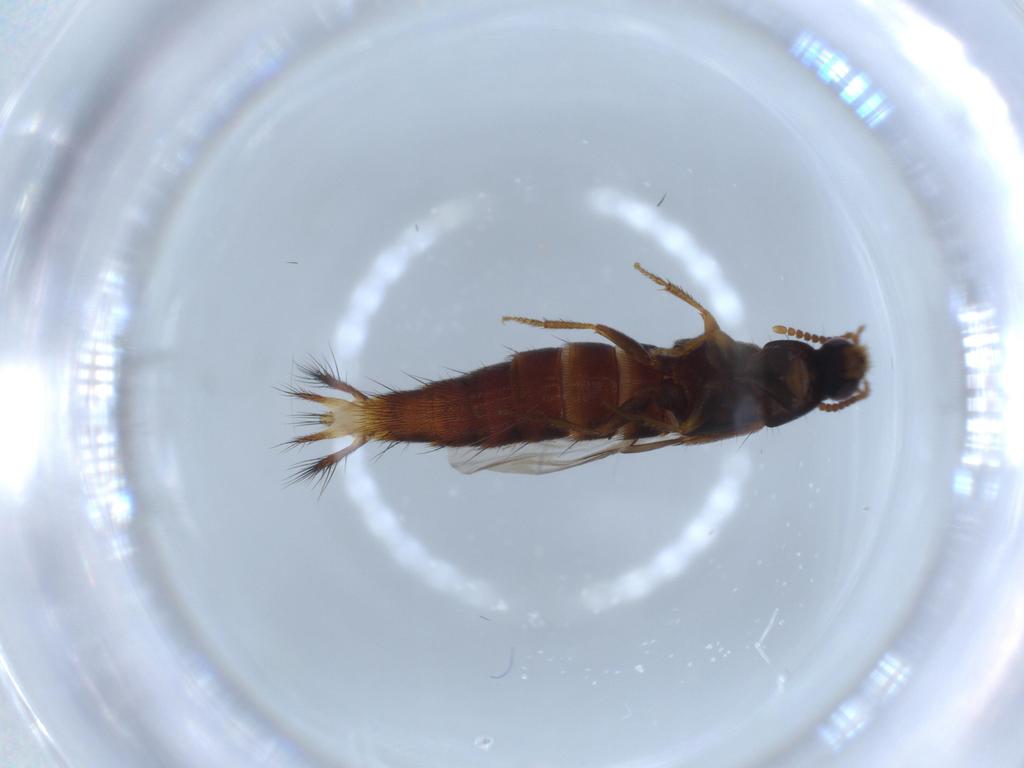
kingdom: Animalia
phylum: Arthropoda
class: Insecta
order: Coleoptera
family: Staphylinidae
